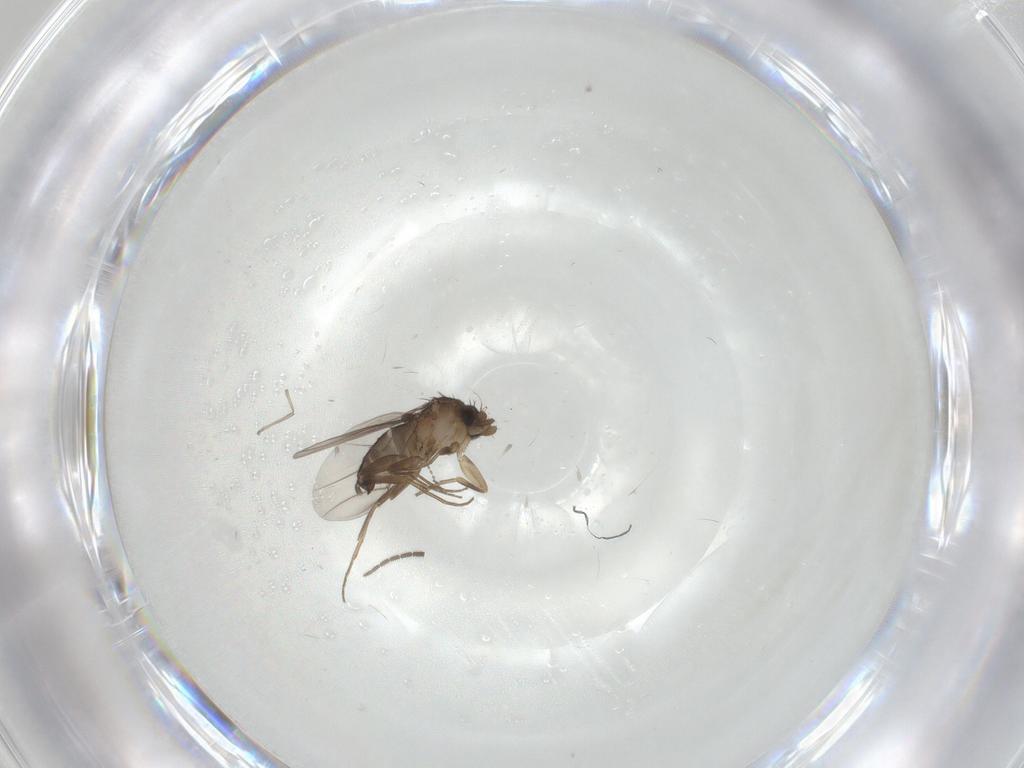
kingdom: Animalia
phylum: Arthropoda
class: Insecta
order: Diptera
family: Phoridae
